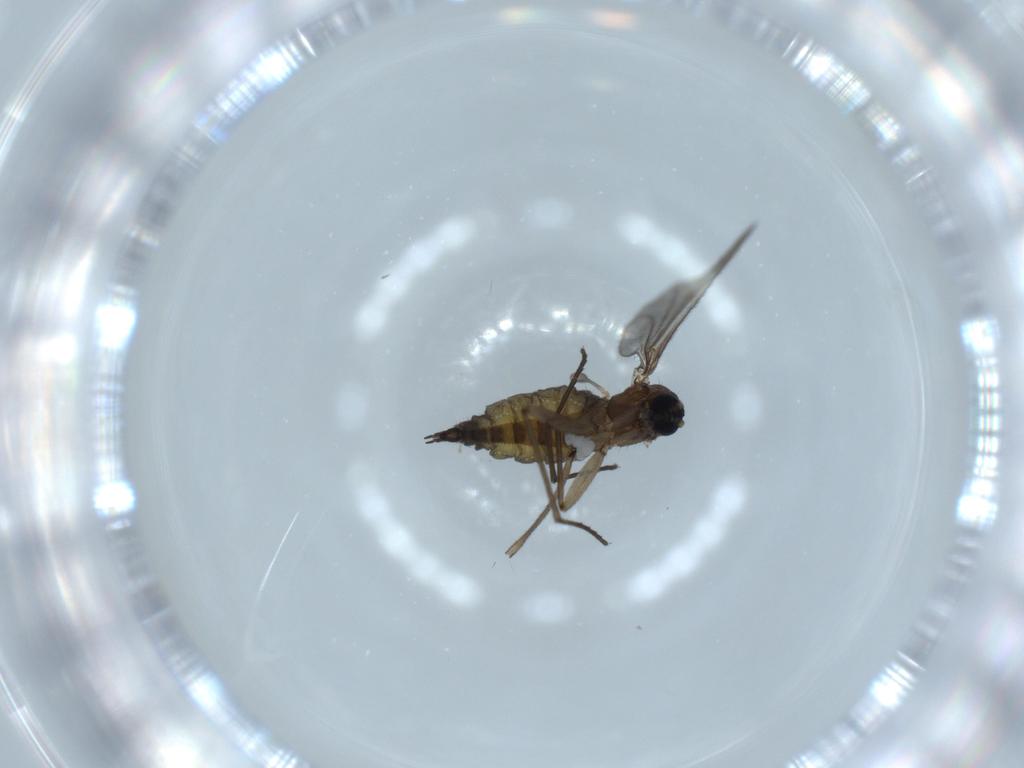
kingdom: Animalia
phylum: Arthropoda
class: Insecta
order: Diptera
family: Sciaridae
